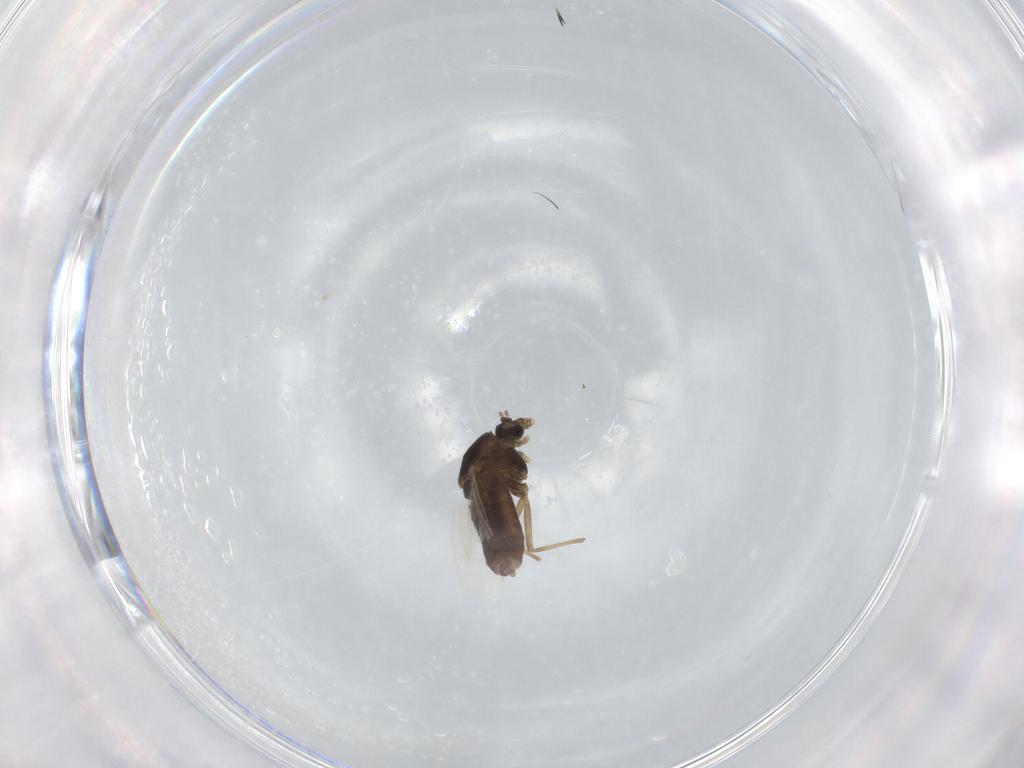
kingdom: Animalia
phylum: Arthropoda
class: Insecta
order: Diptera
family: Chironomidae
